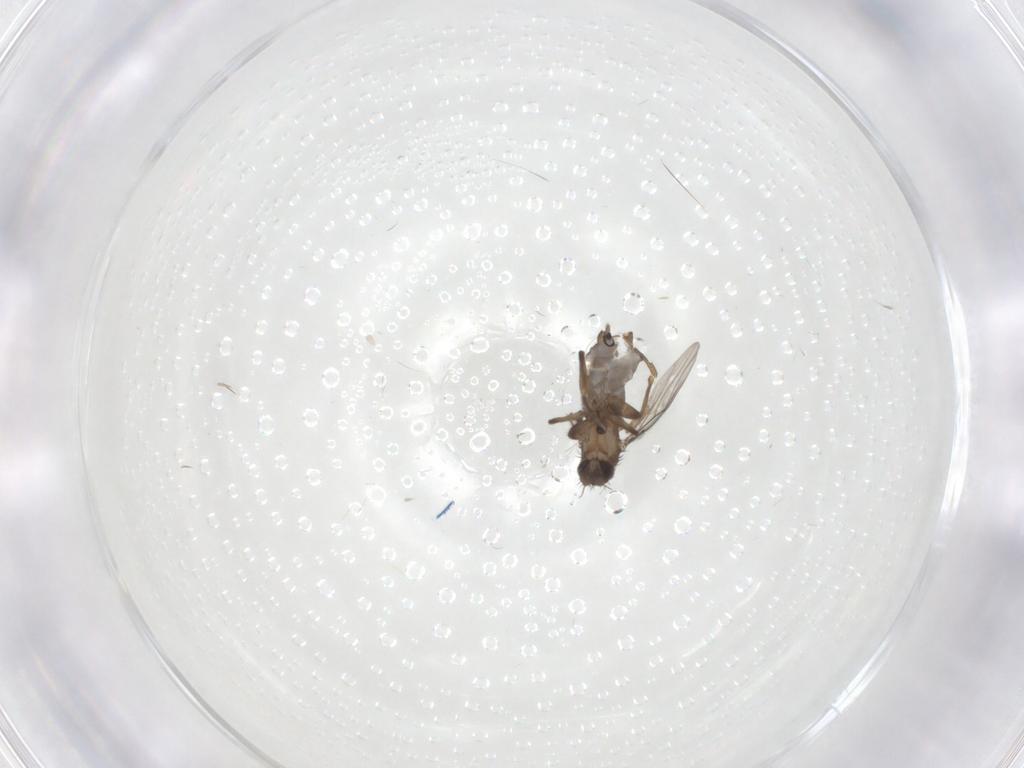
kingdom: Animalia
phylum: Arthropoda
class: Insecta
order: Diptera
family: Phoridae
